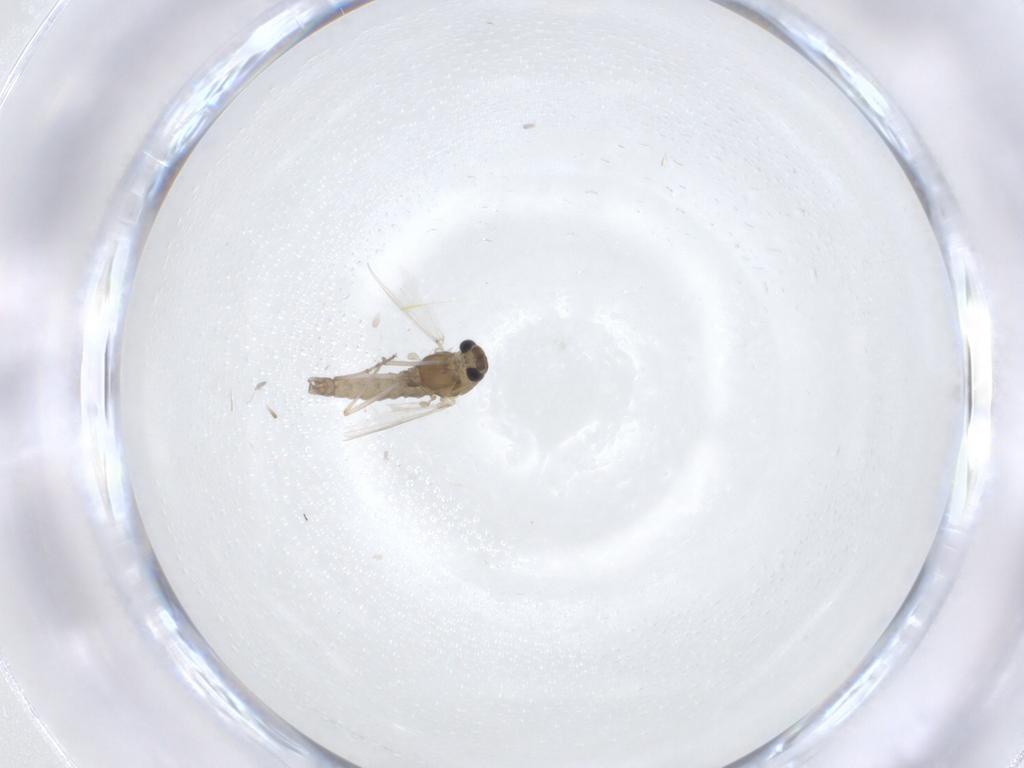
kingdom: Animalia
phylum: Arthropoda
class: Insecta
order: Diptera
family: Chironomidae
